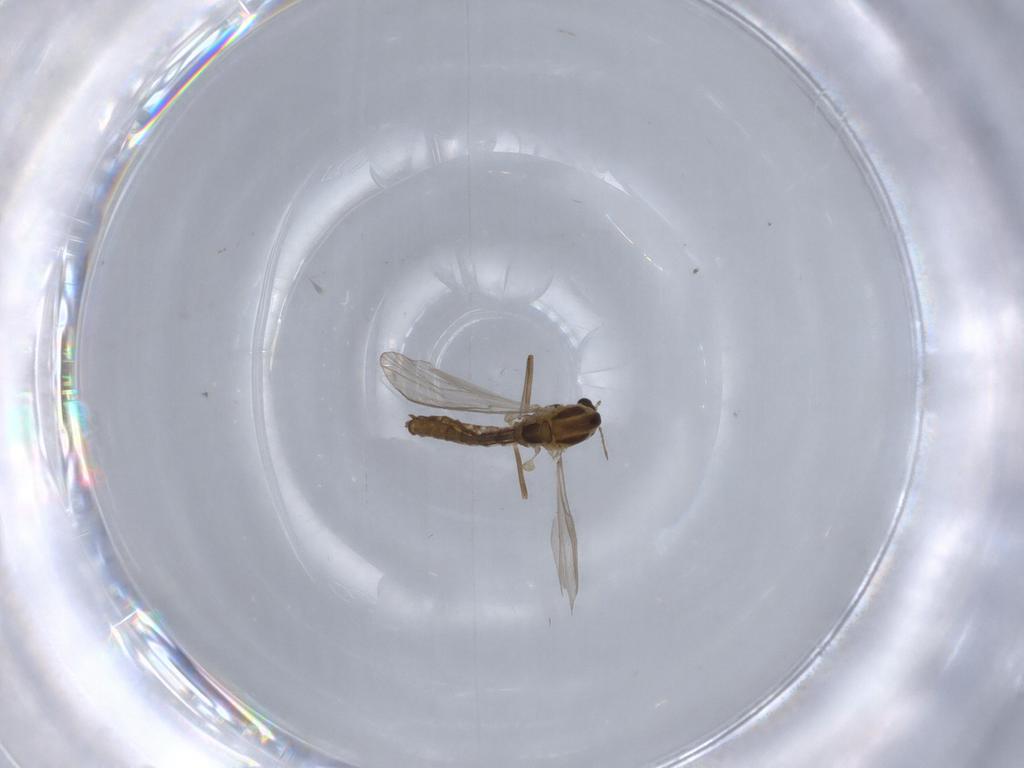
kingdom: Animalia
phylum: Arthropoda
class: Insecta
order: Diptera
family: Chironomidae
